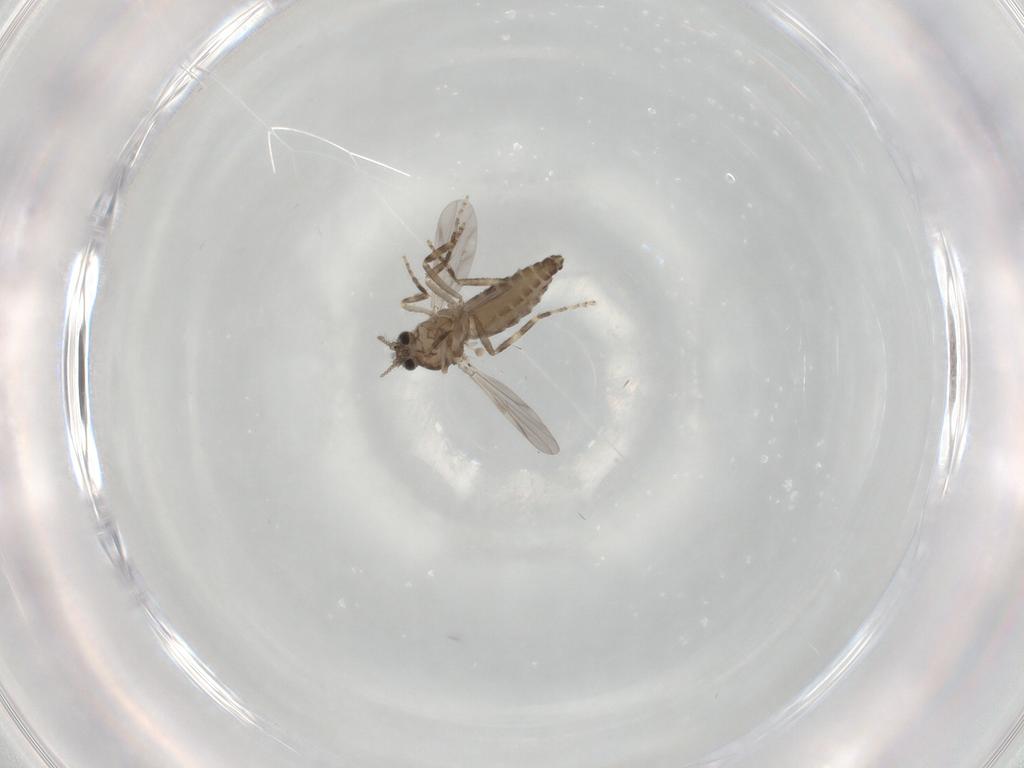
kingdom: Animalia
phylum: Arthropoda
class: Insecta
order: Diptera
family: Ceratopogonidae
